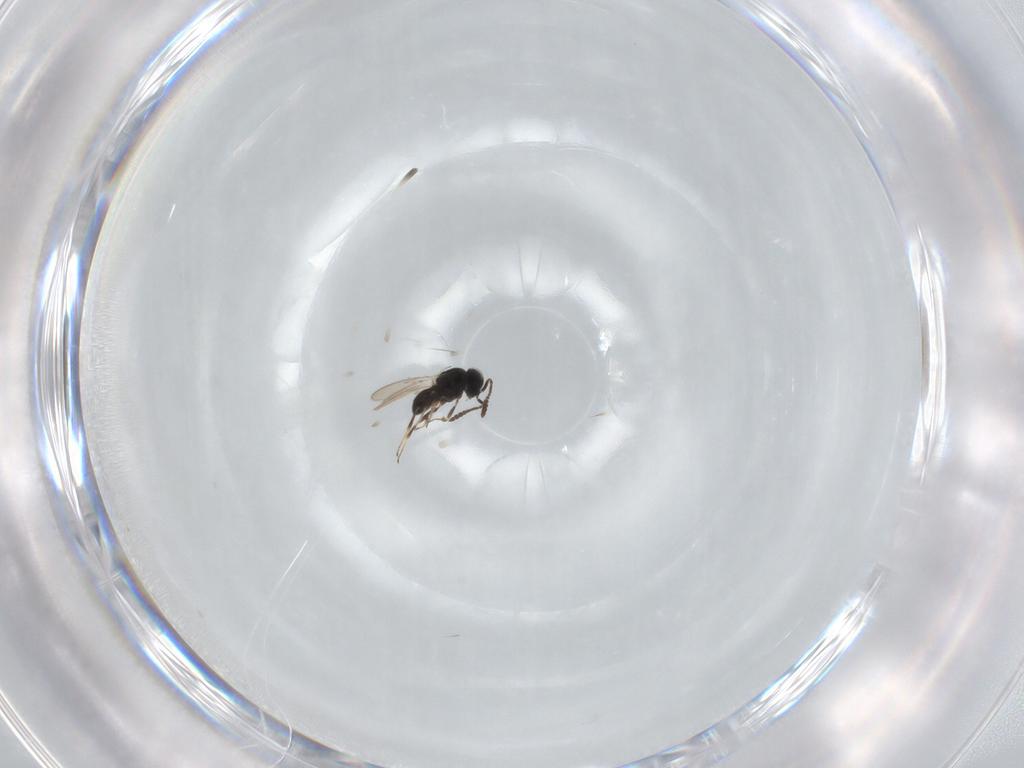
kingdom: Animalia
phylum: Arthropoda
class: Insecta
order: Hymenoptera
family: Scelionidae
